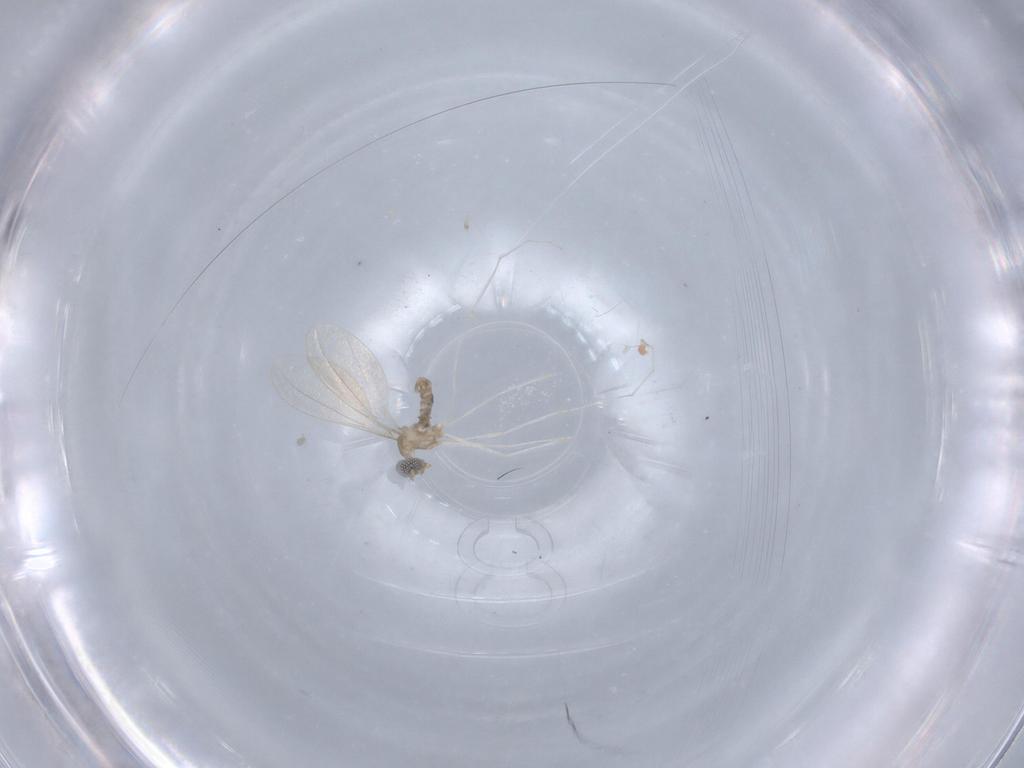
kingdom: Animalia
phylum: Arthropoda
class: Insecta
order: Diptera
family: Cecidomyiidae
